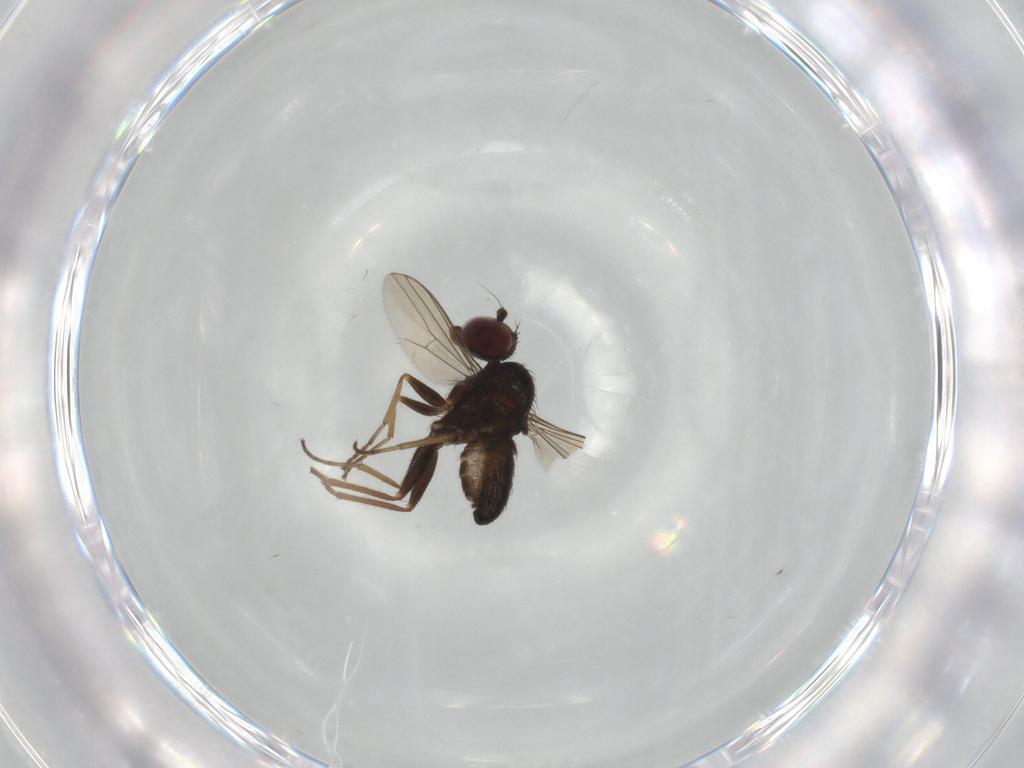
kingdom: Animalia
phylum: Arthropoda
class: Insecta
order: Diptera
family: Dolichopodidae
